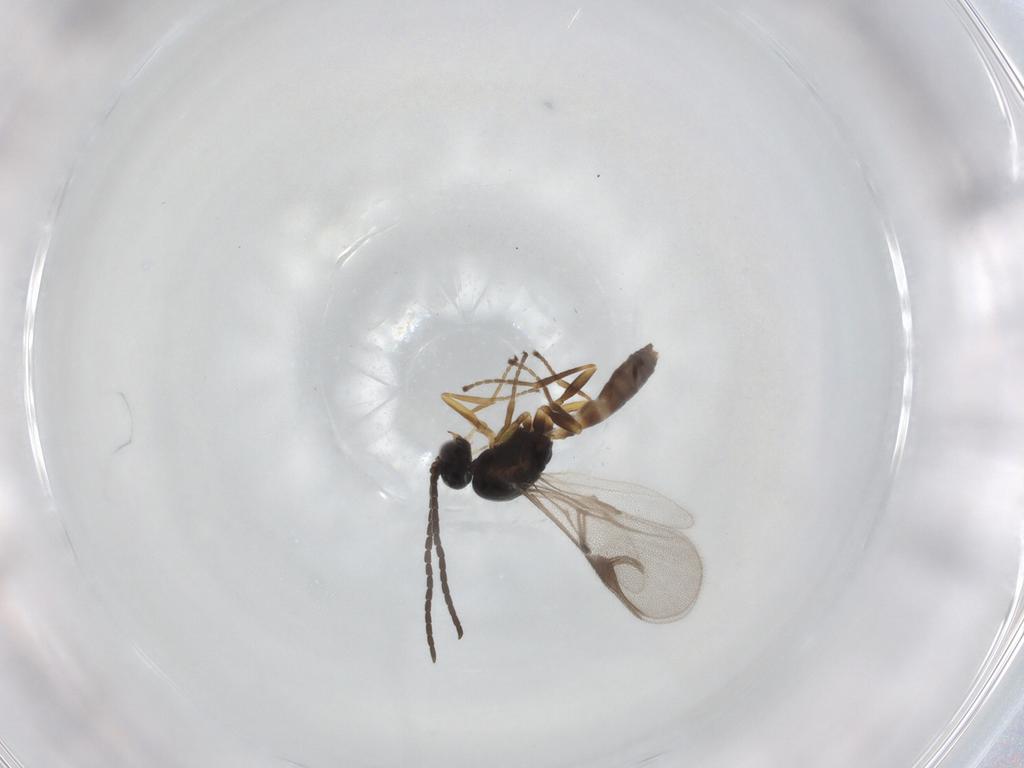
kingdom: Animalia
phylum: Arthropoda
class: Insecta
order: Hymenoptera
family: Braconidae
